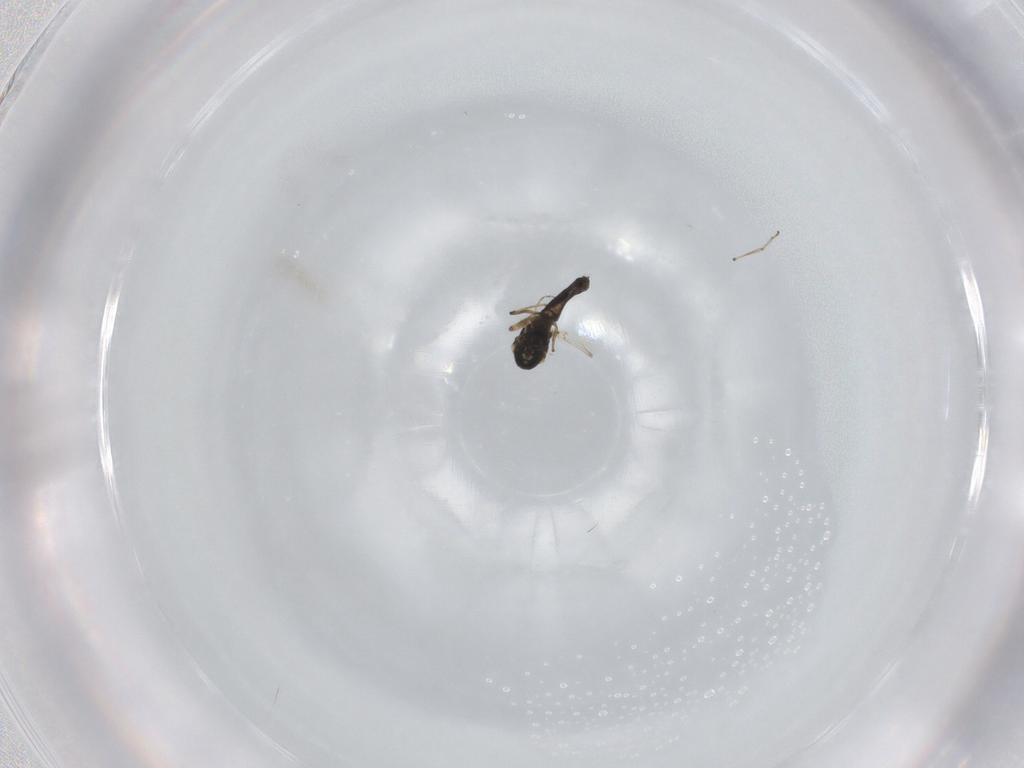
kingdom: Animalia
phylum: Arthropoda
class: Insecta
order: Diptera
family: Ceratopogonidae
